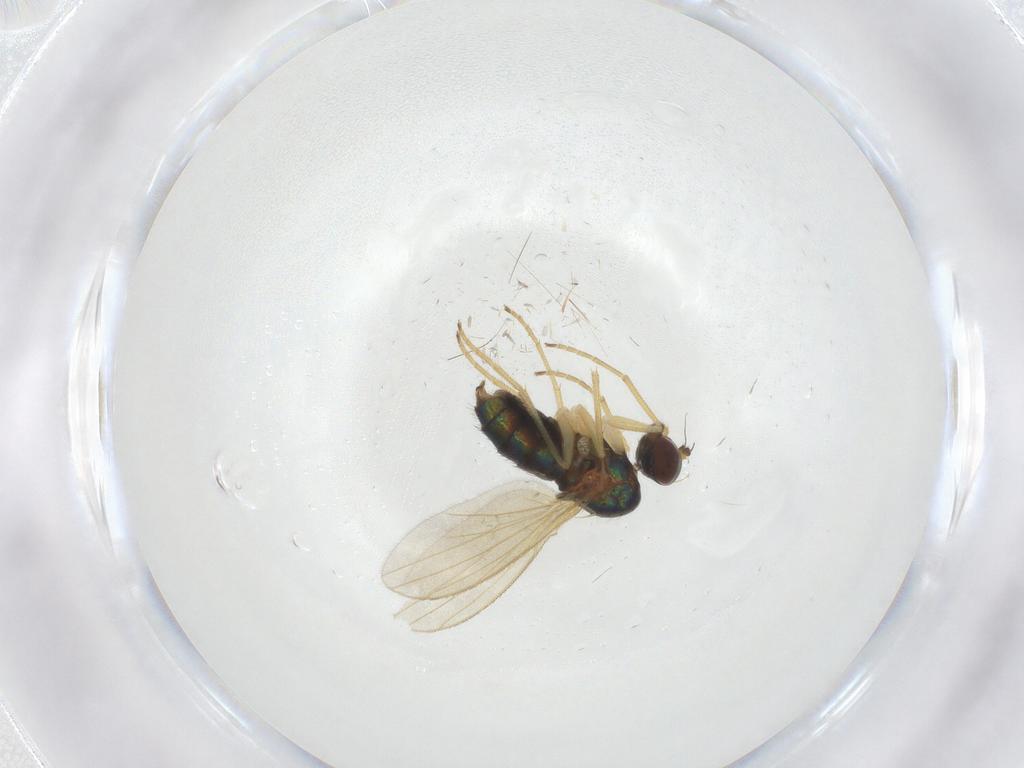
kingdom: Animalia
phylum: Arthropoda
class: Insecta
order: Diptera
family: Dolichopodidae
